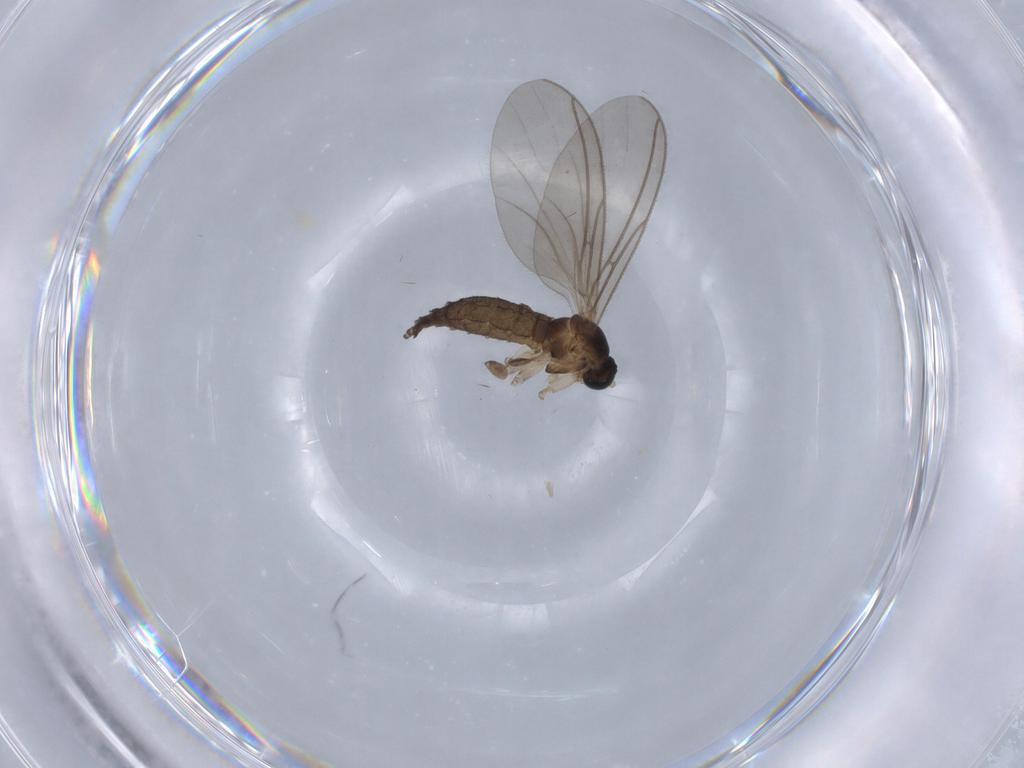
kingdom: Animalia
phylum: Arthropoda
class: Insecta
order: Diptera
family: Sciaridae
